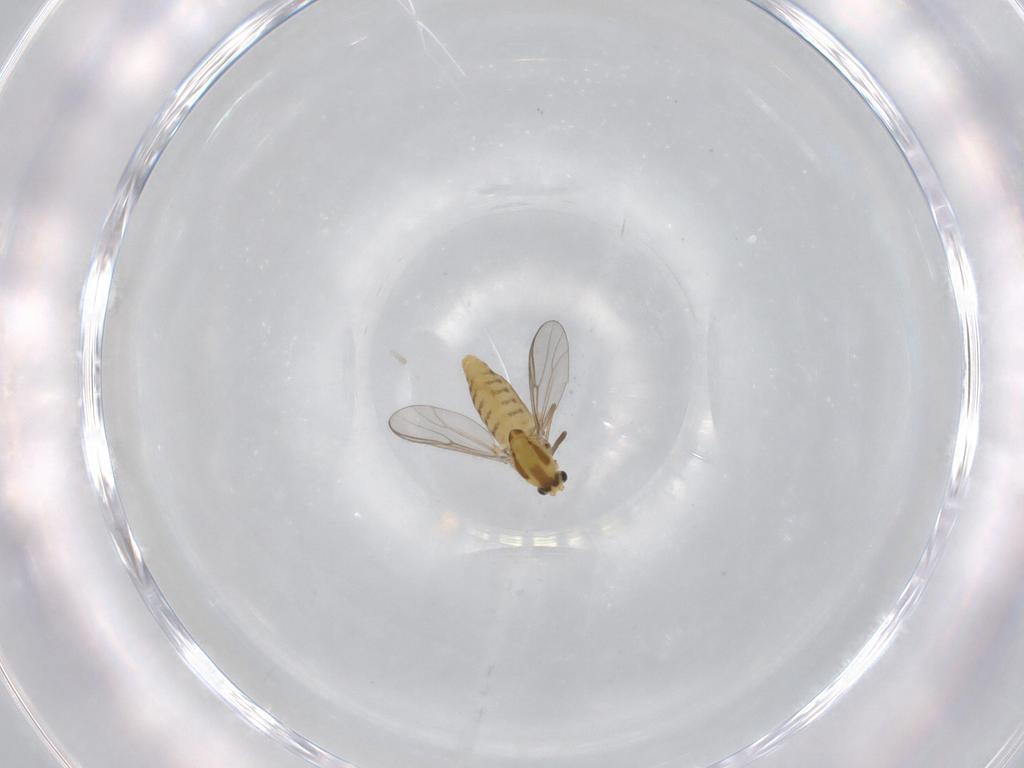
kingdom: Animalia
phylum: Arthropoda
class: Insecta
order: Diptera
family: Chironomidae
